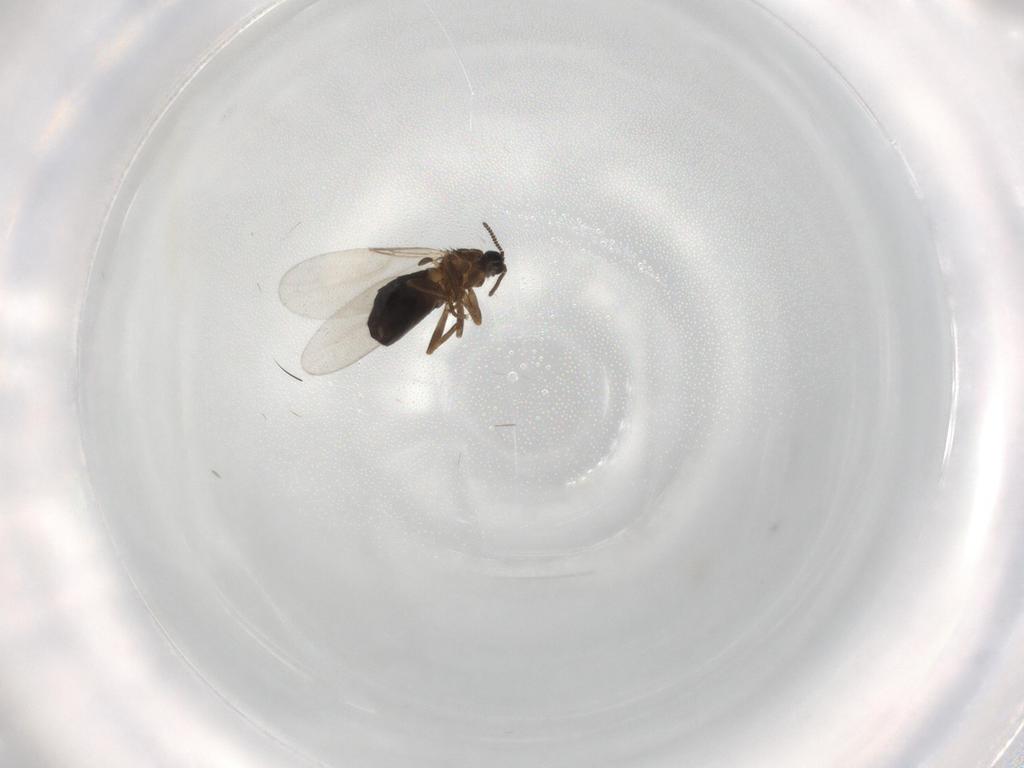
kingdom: Animalia
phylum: Arthropoda
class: Insecta
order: Diptera
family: Scatopsidae
